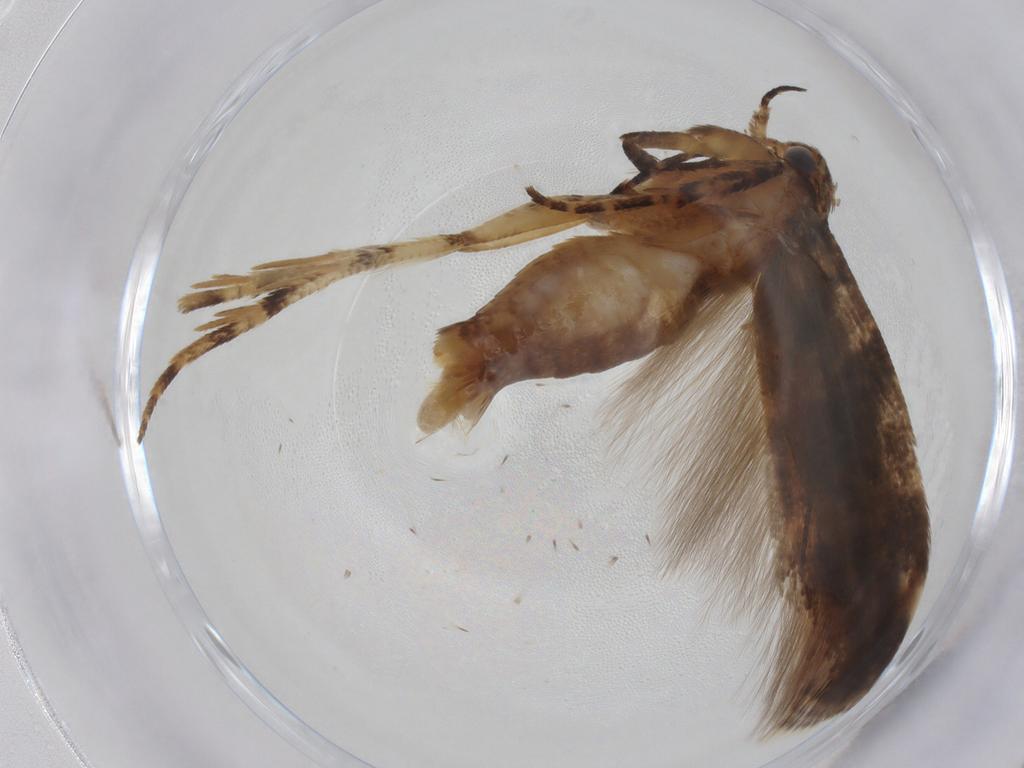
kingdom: Animalia
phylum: Arthropoda
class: Insecta
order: Lepidoptera
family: Gelechiidae
